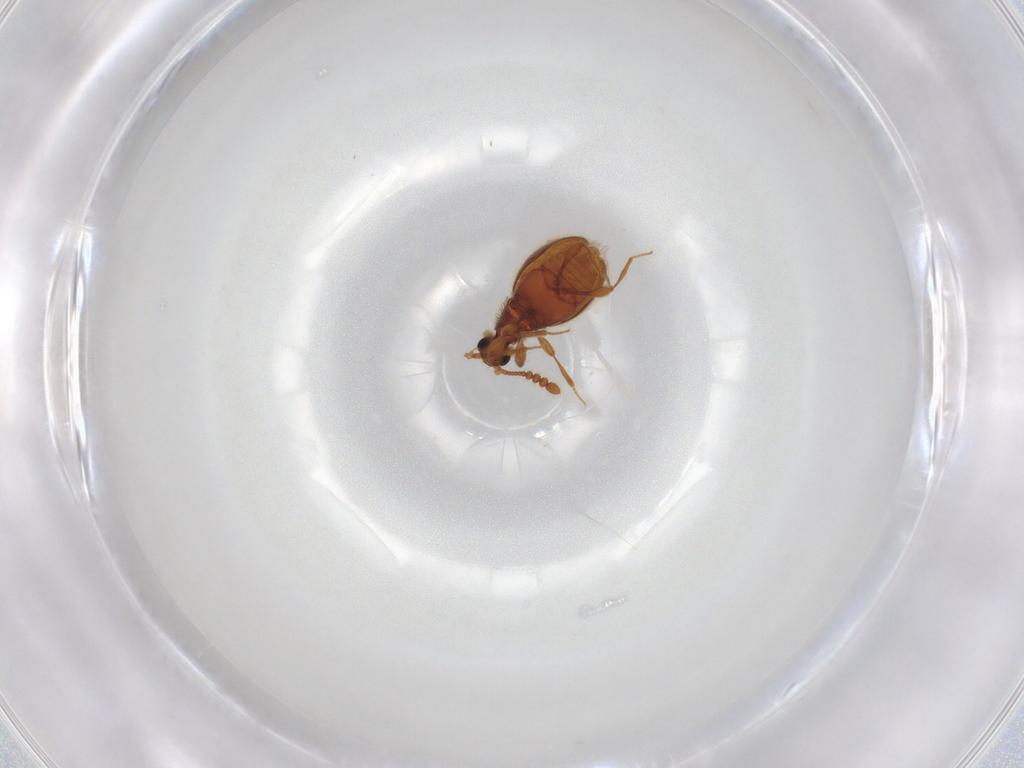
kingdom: Animalia
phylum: Arthropoda
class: Insecta
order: Coleoptera
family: Staphylinidae
